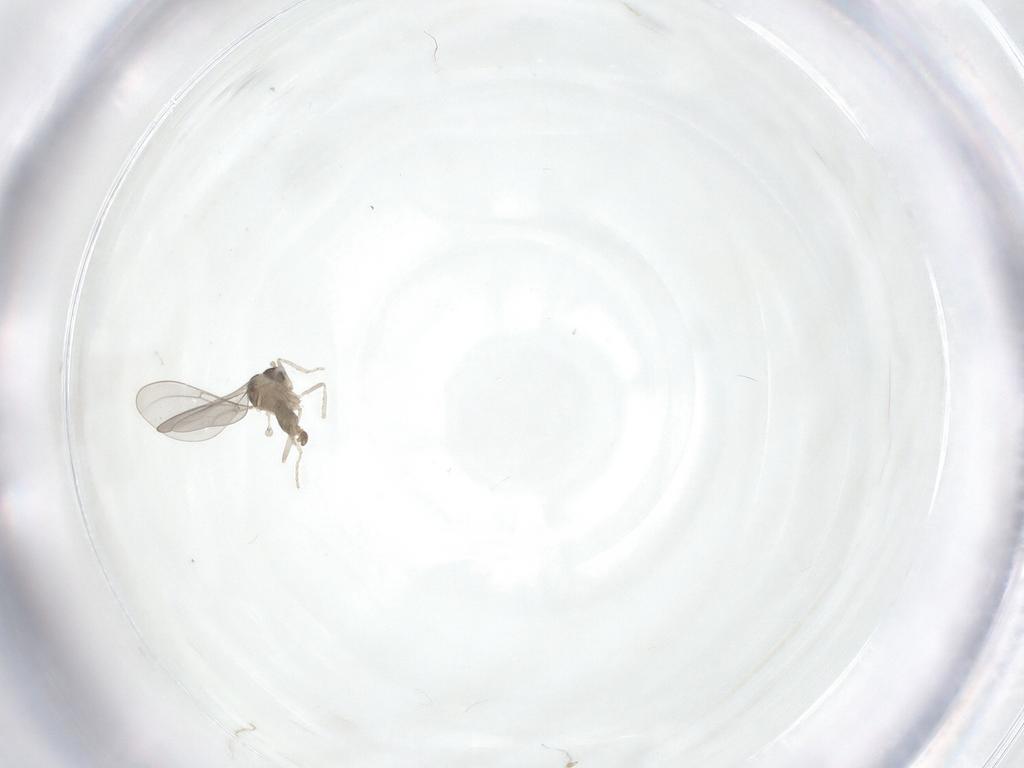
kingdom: Animalia
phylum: Arthropoda
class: Insecta
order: Diptera
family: Cecidomyiidae
